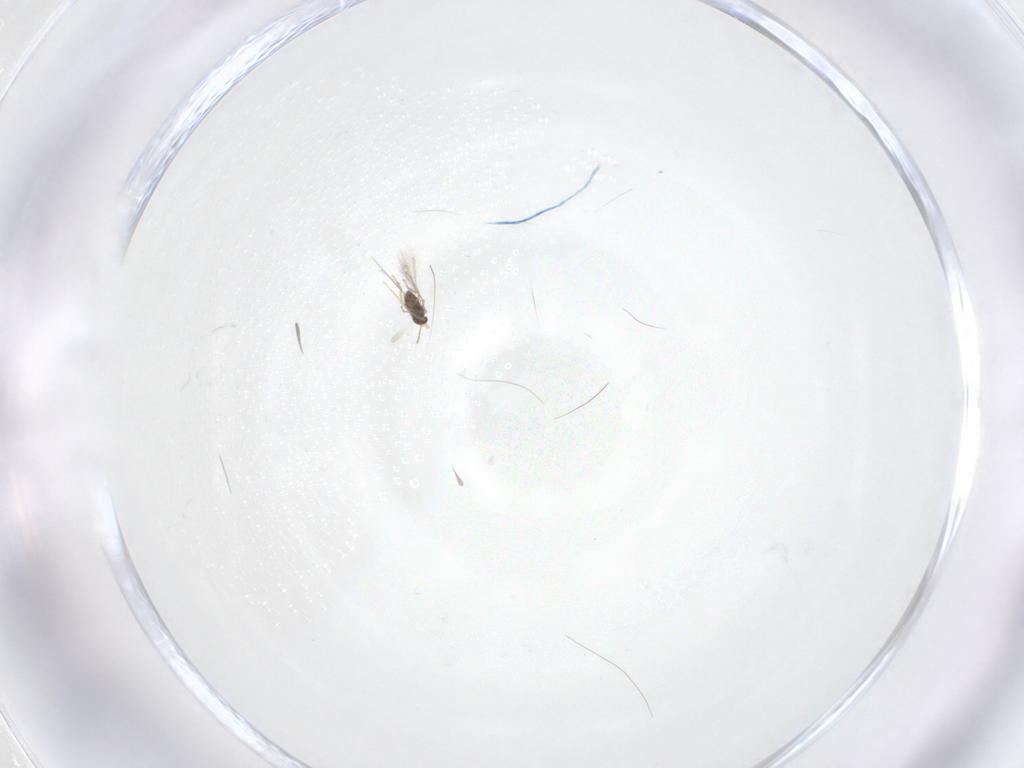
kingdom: Animalia
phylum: Arthropoda
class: Insecta
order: Hymenoptera
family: Mymaridae
